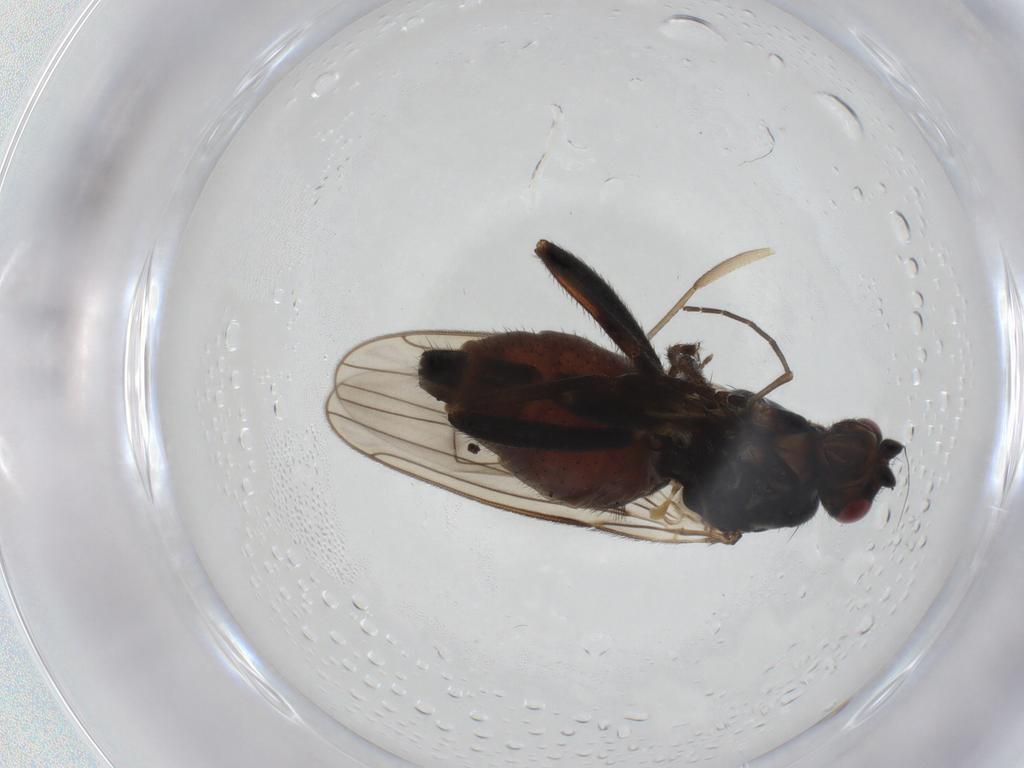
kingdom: Animalia
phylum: Arthropoda
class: Insecta
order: Diptera
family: Sphaeroceridae
